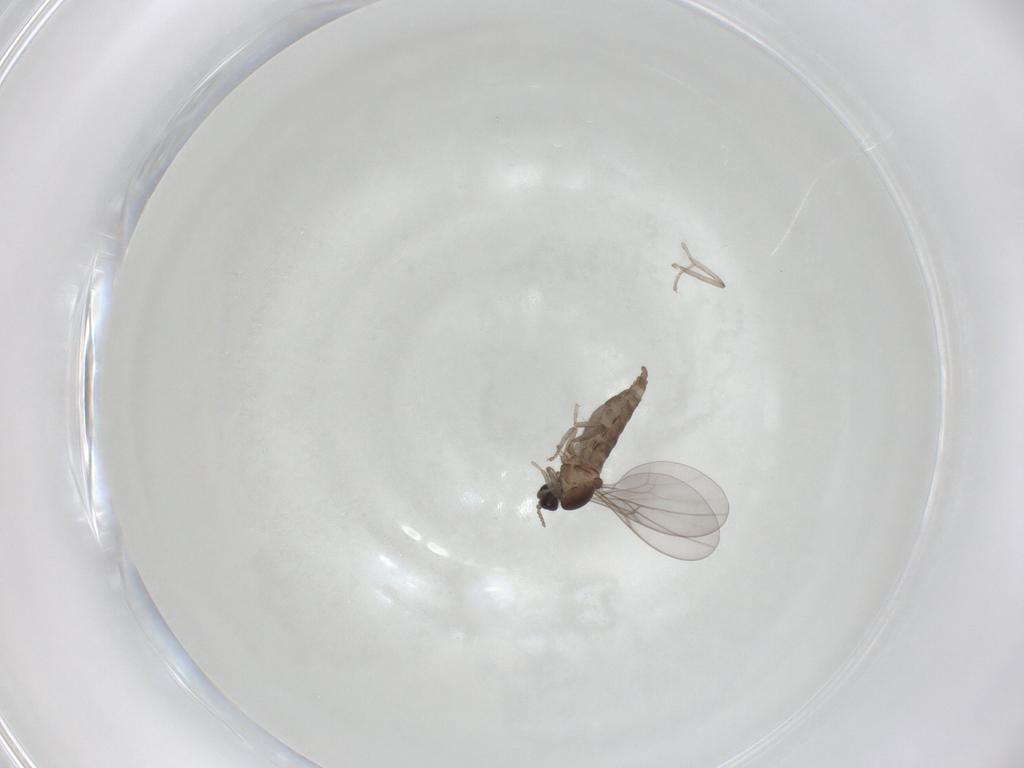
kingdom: Animalia
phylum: Arthropoda
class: Insecta
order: Diptera
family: Cecidomyiidae
